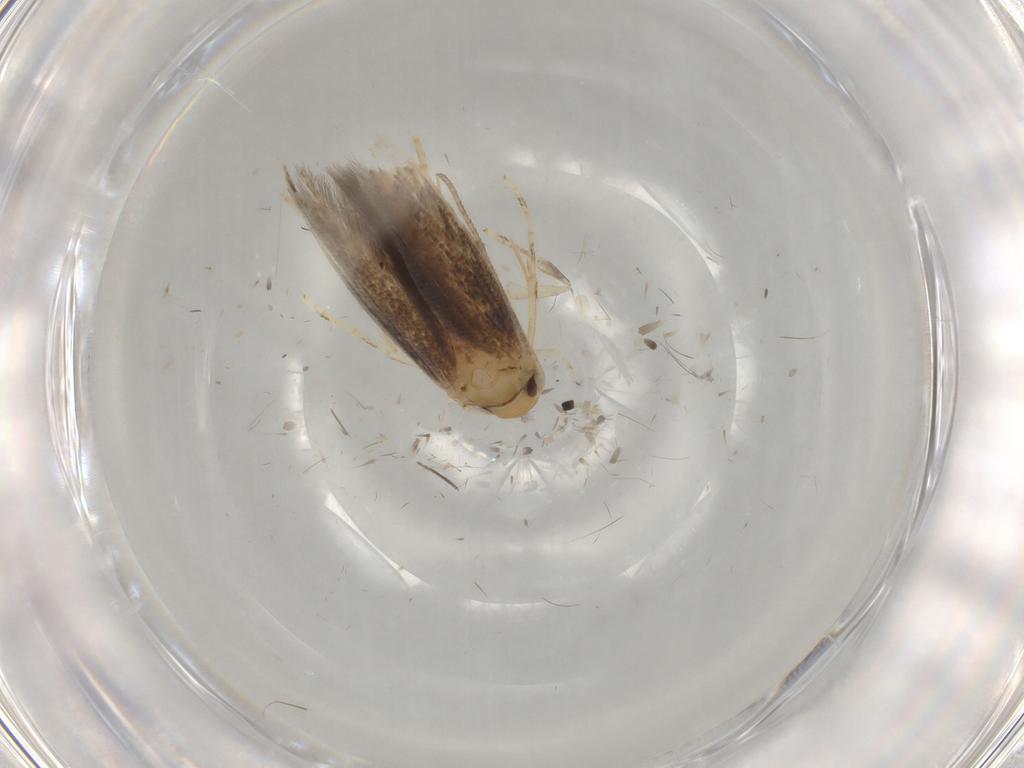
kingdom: Animalia
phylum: Arthropoda
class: Insecta
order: Lepidoptera
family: Momphidae
